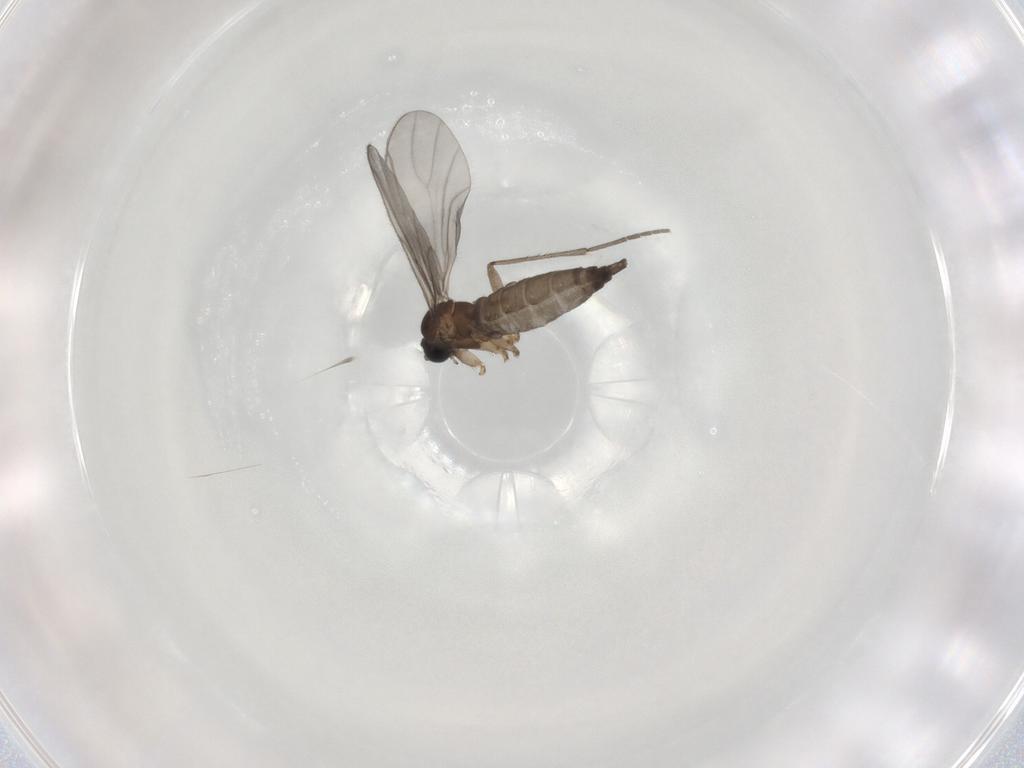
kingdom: Animalia
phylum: Arthropoda
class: Insecta
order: Diptera
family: Sciaridae
